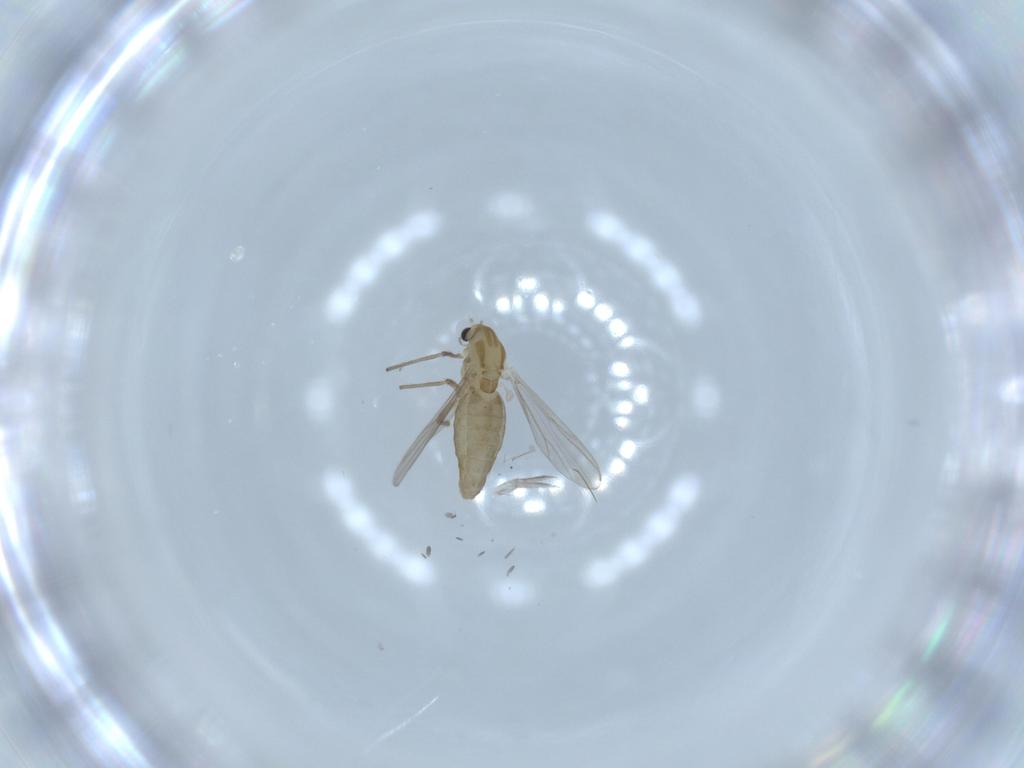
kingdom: Animalia
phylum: Arthropoda
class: Insecta
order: Diptera
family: Chironomidae
